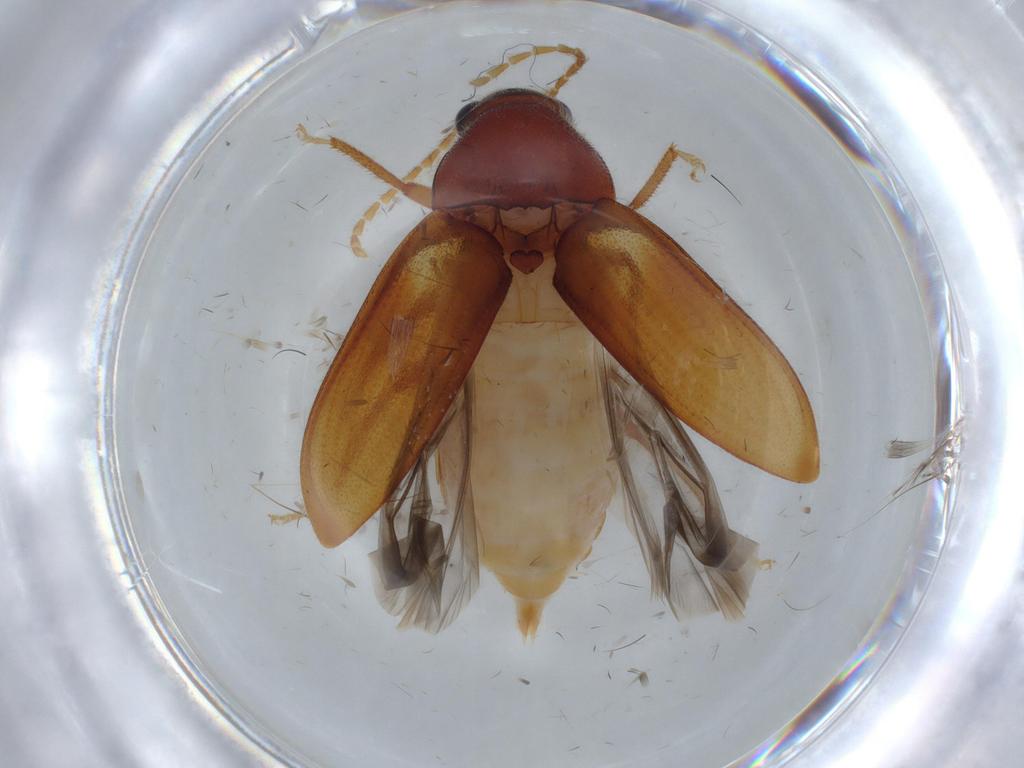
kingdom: Animalia
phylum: Arthropoda
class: Insecta
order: Coleoptera
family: Ptilodactylidae
